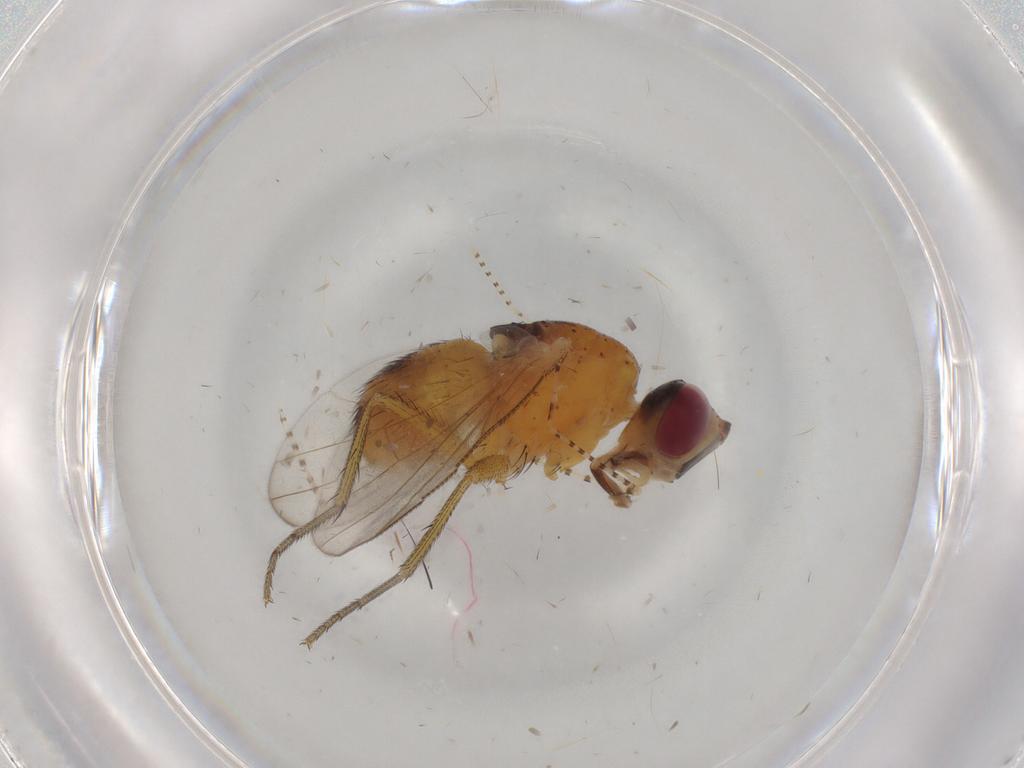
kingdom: Animalia
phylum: Arthropoda
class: Insecta
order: Diptera
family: Muscidae
